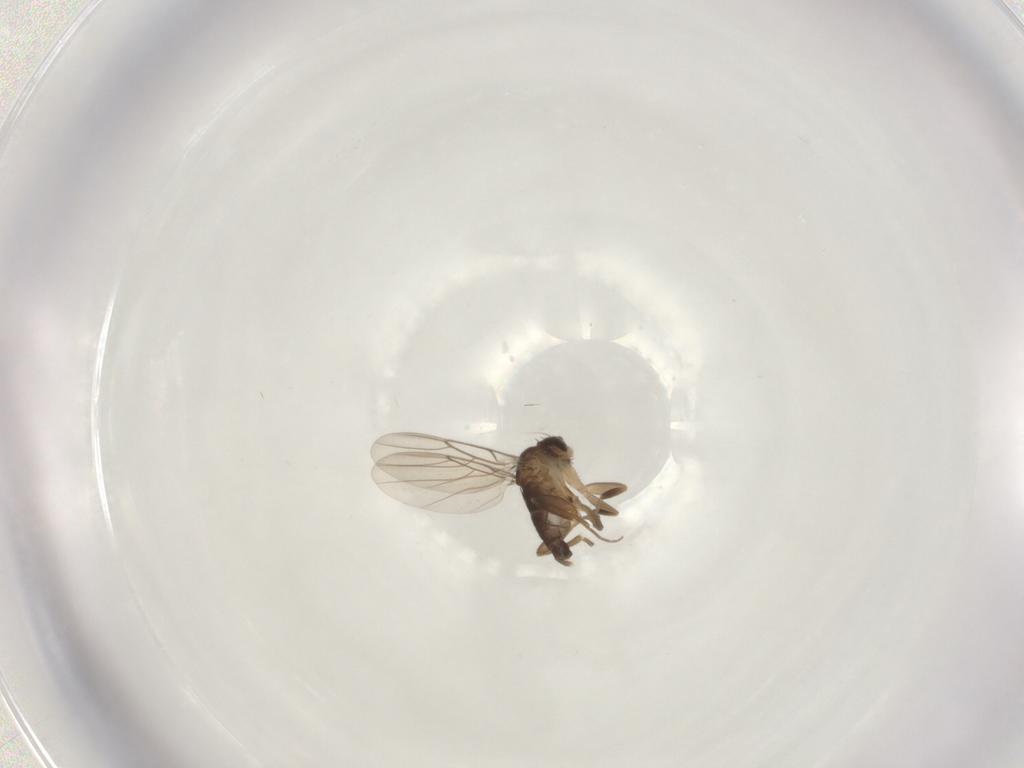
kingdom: Animalia
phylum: Arthropoda
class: Insecta
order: Diptera
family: Phoridae
